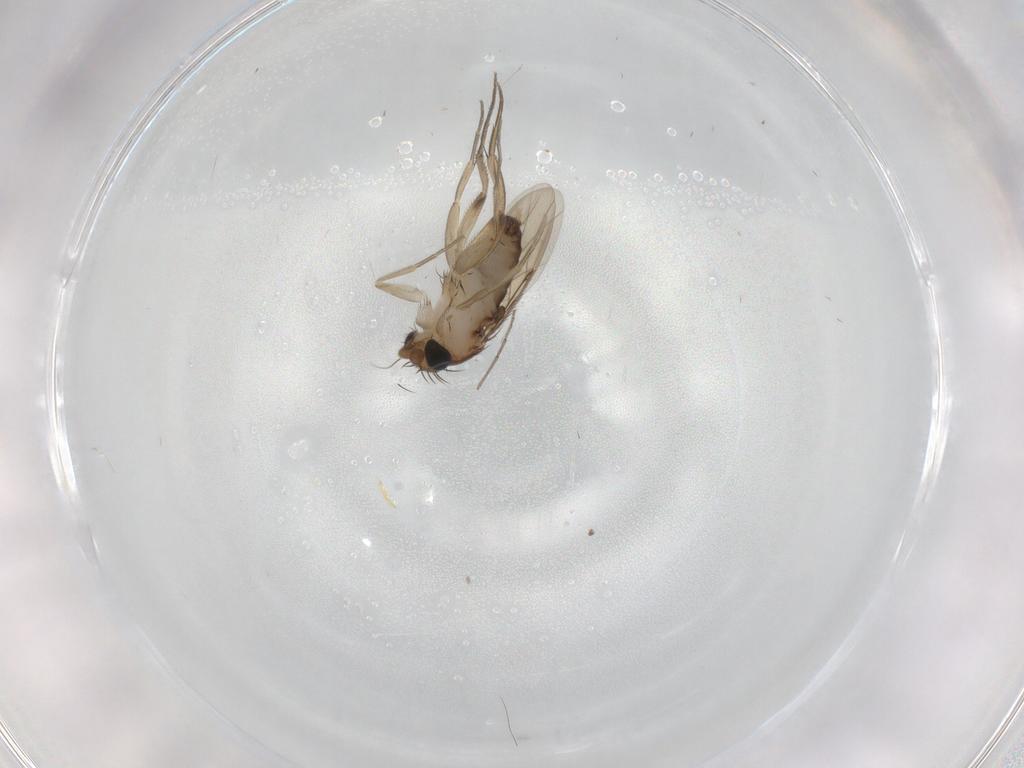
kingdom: Animalia
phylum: Arthropoda
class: Insecta
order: Diptera
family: Phoridae
